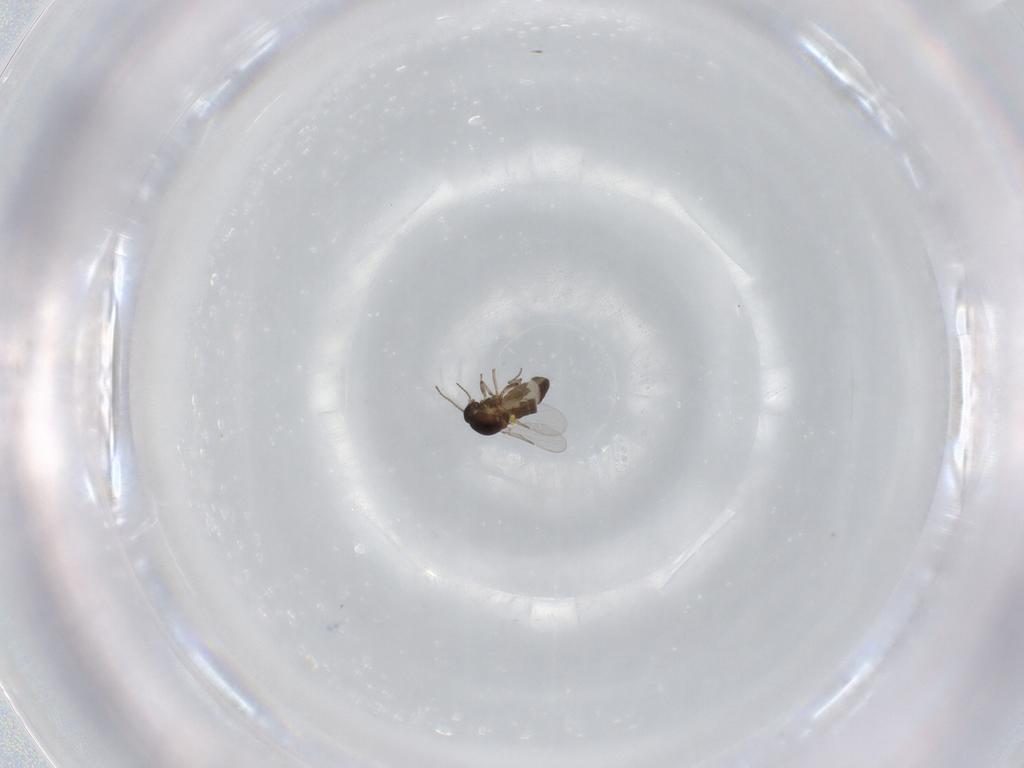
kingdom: Animalia
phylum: Arthropoda
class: Insecta
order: Diptera
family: Ceratopogonidae
